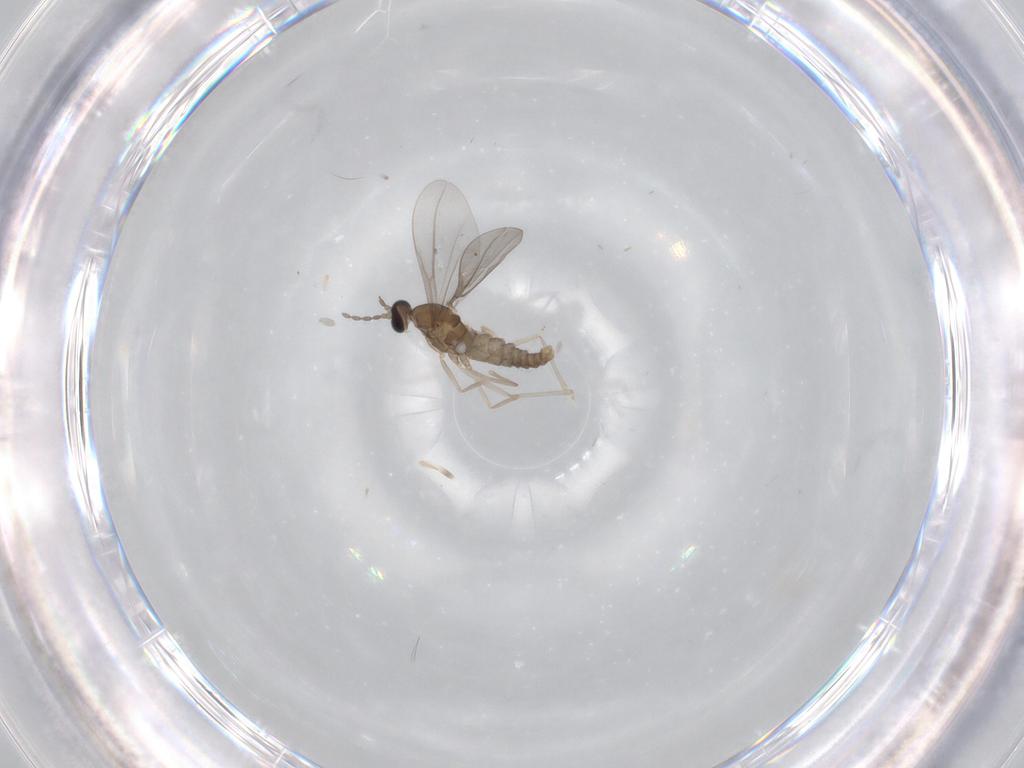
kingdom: Animalia
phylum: Arthropoda
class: Insecta
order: Diptera
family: Cecidomyiidae
